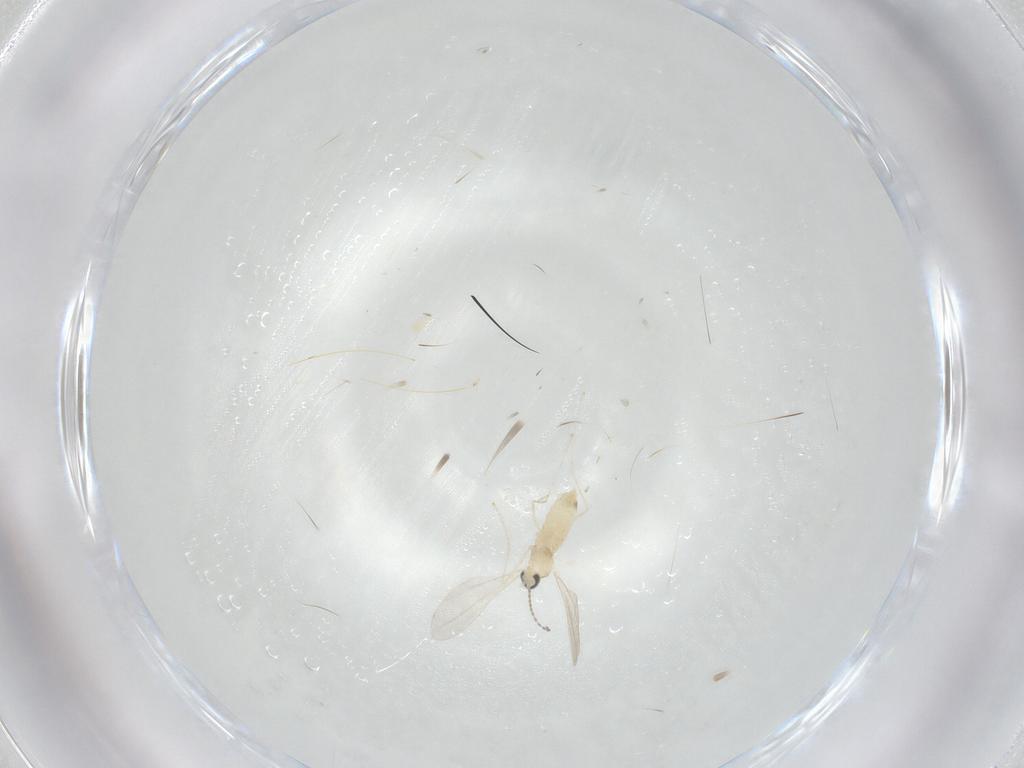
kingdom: Animalia
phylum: Arthropoda
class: Insecta
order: Diptera
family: Cecidomyiidae
